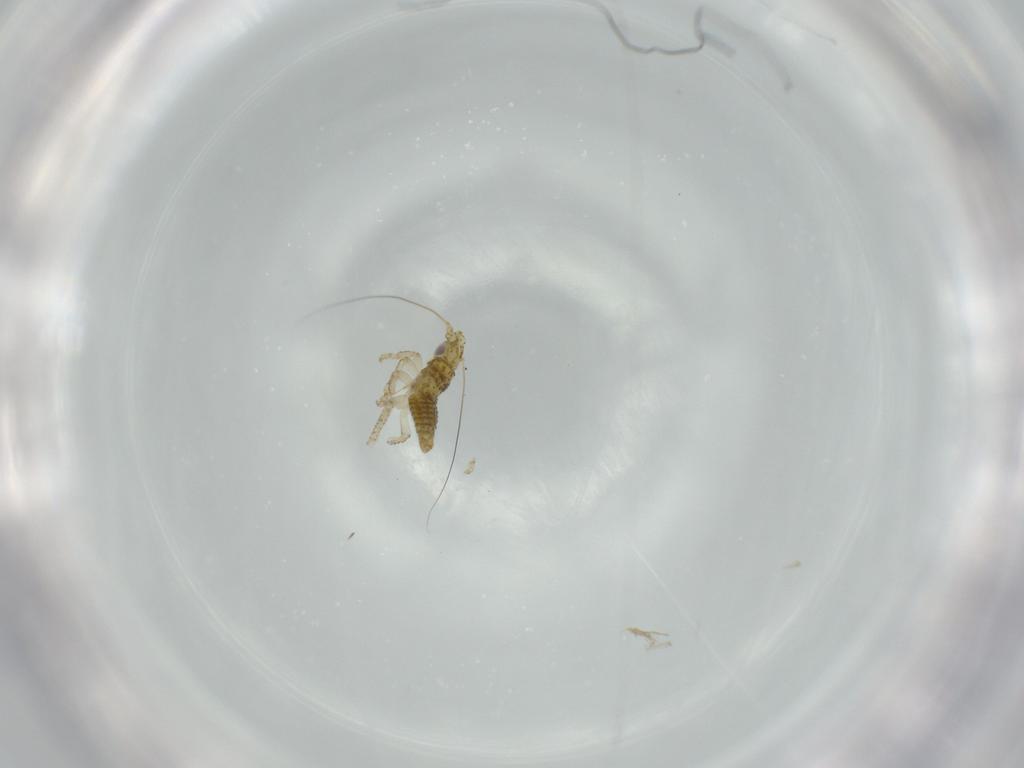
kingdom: Animalia
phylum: Arthropoda
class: Insecta
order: Hemiptera
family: Cicadellidae
